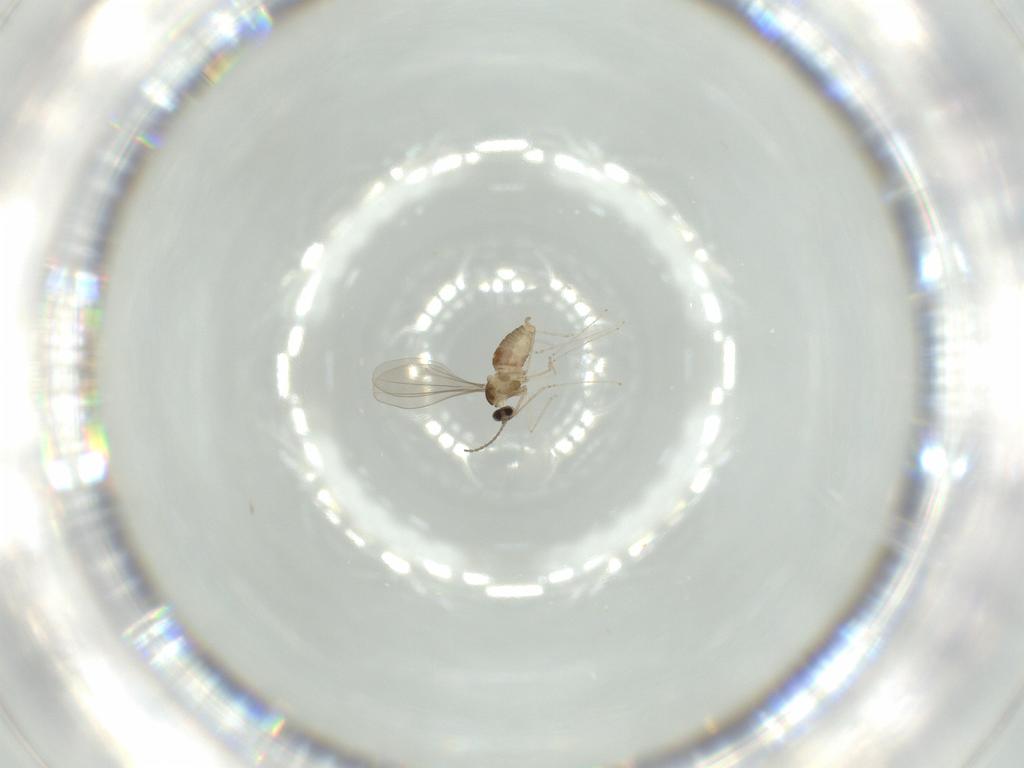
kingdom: Animalia
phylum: Arthropoda
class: Insecta
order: Diptera
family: Cecidomyiidae
